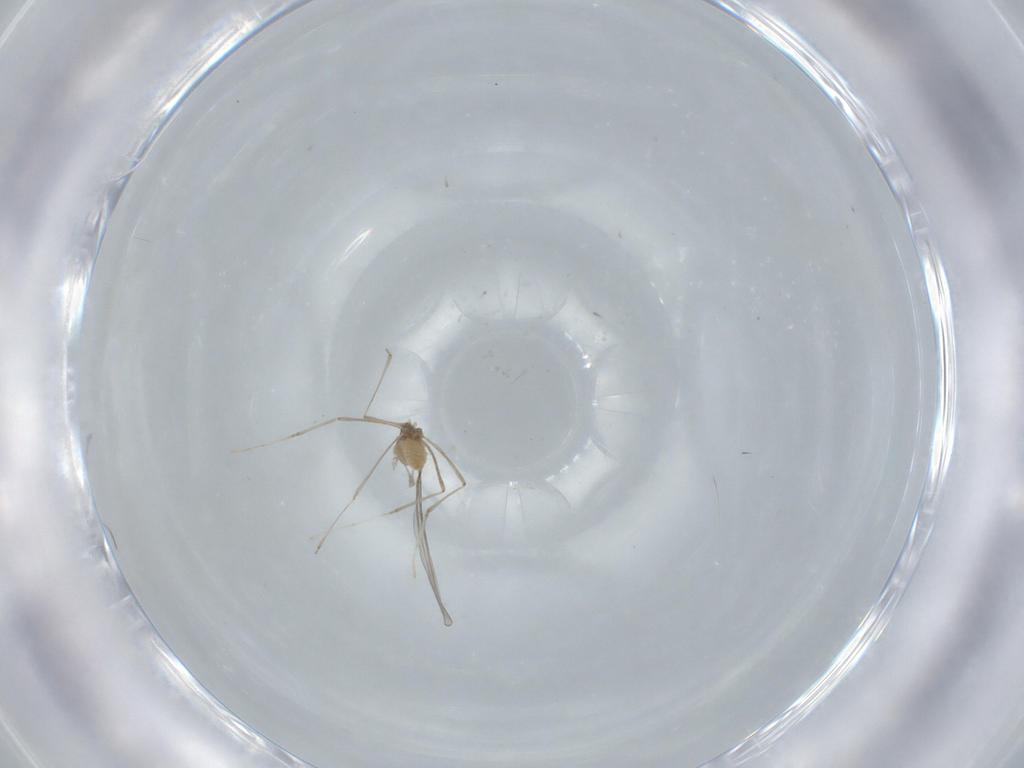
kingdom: Animalia
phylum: Arthropoda
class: Insecta
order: Diptera
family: Cecidomyiidae
